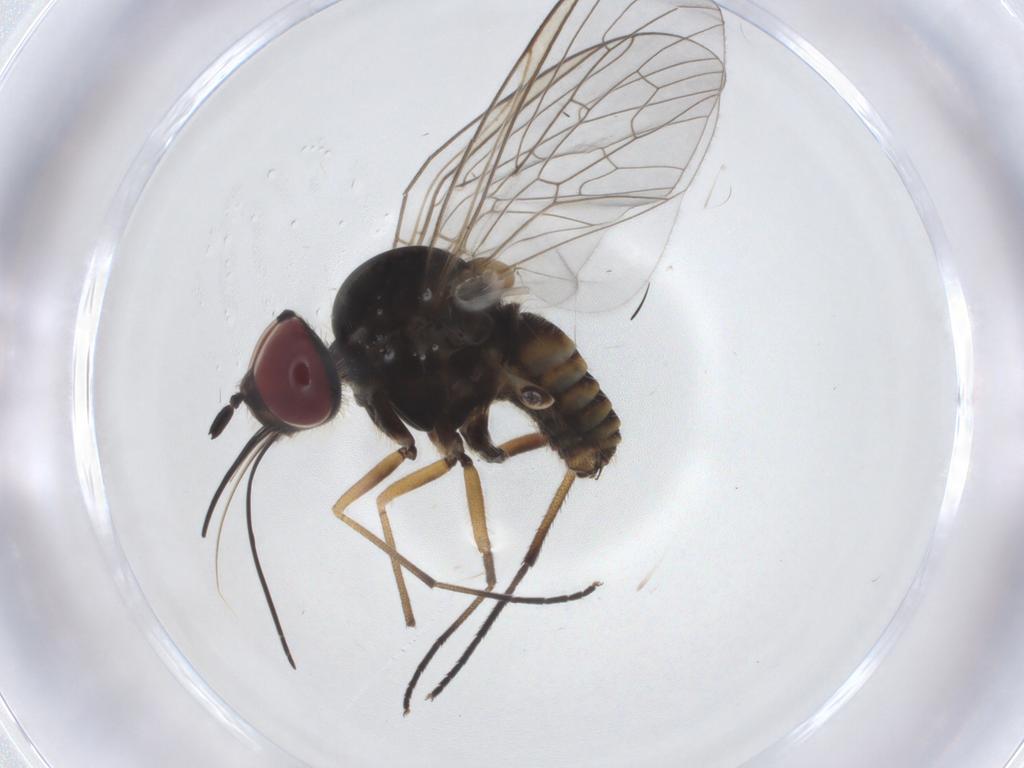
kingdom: Animalia
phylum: Arthropoda
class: Insecta
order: Diptera
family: Bombyliidae
